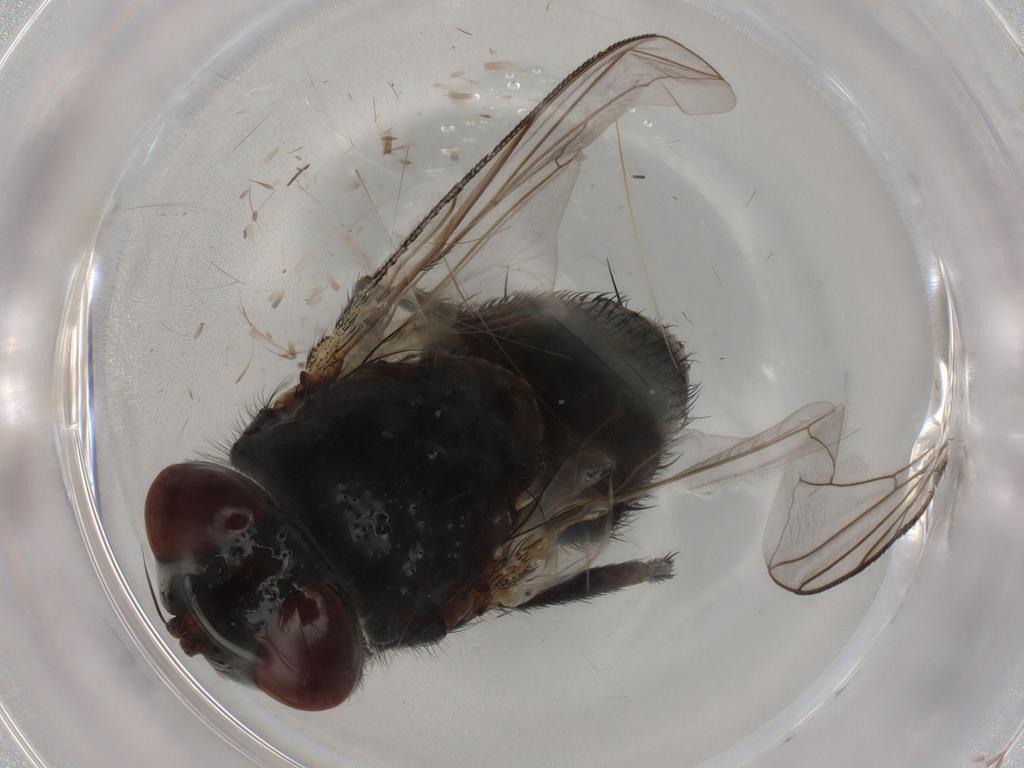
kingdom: Animalia
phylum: Arthropoda
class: Insecta
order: Diptera
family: Tachinidae
